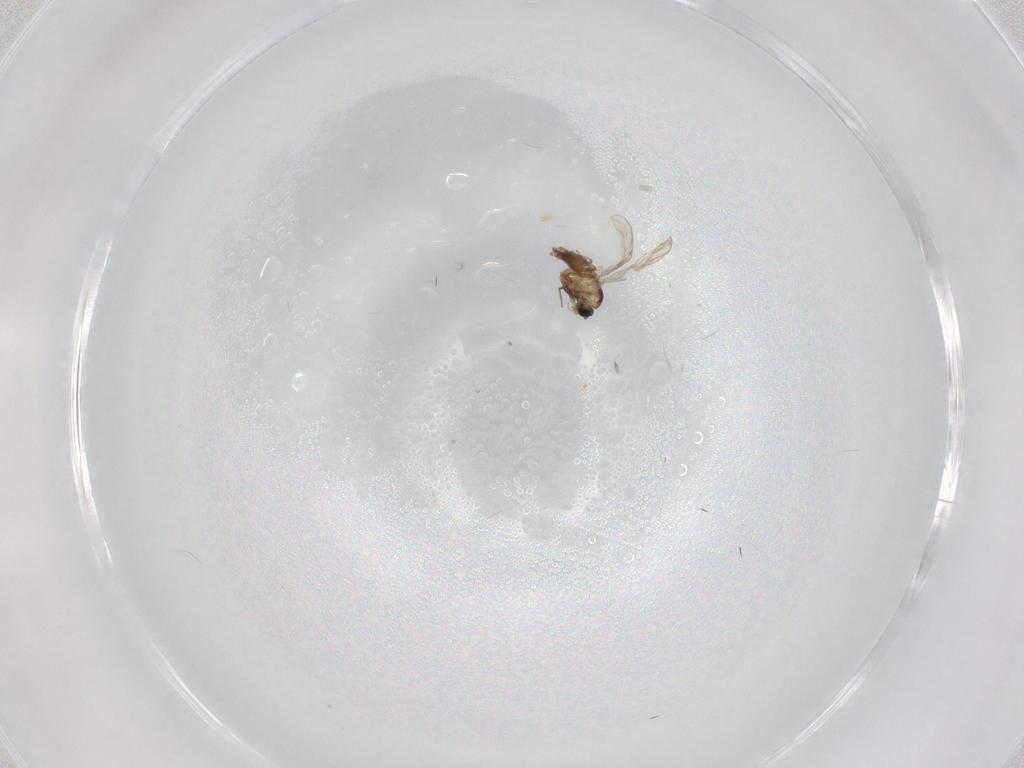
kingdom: Animalia
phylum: Arthropoda
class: Insecta
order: Diptera
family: Chironomidae
